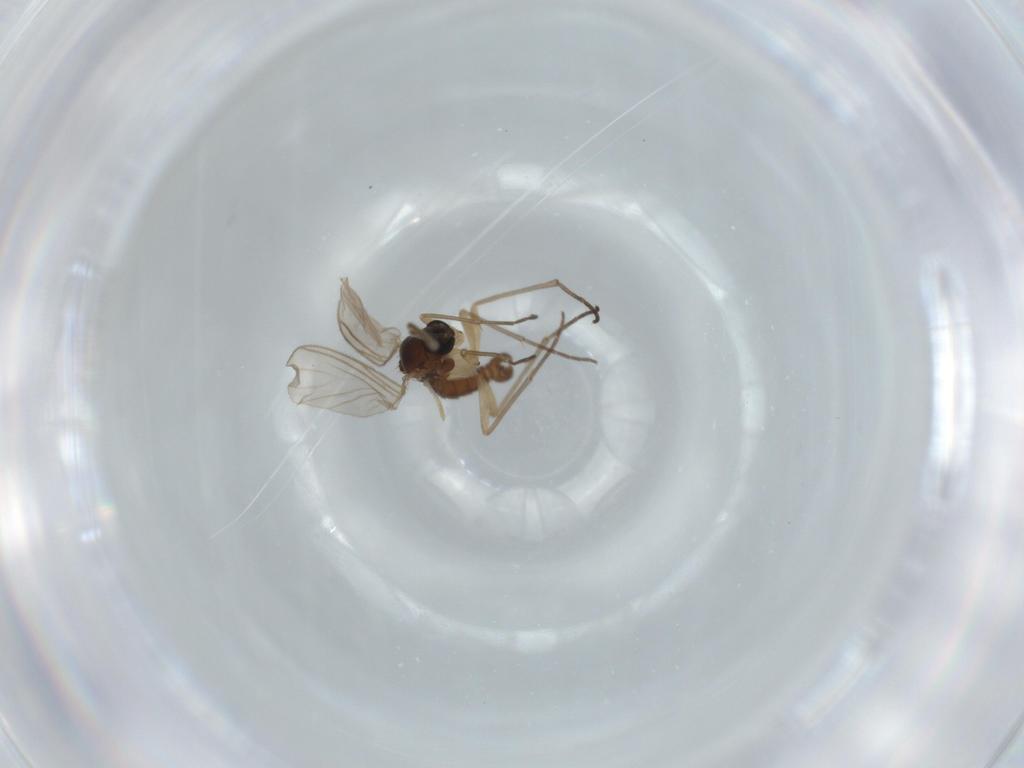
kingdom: Animalia
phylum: Arthropoda
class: Insecta
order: Diptera
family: Sciaridae
